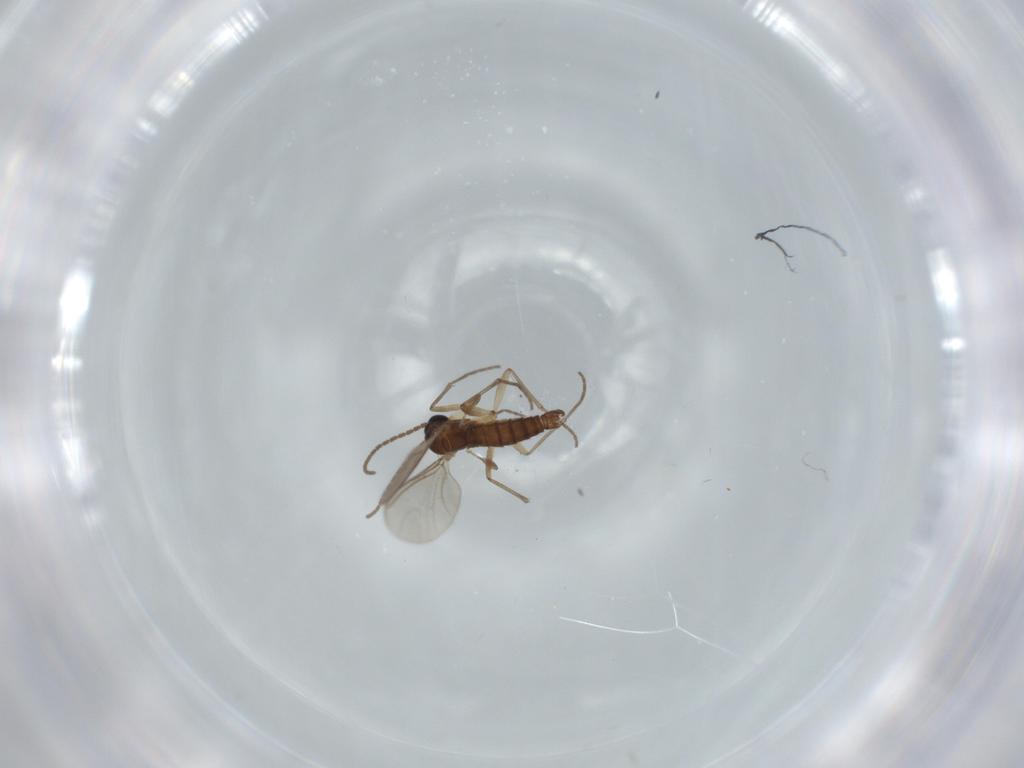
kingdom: Animalia
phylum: Arthropoda
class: Insecta
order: Diptera
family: Sciaridae
